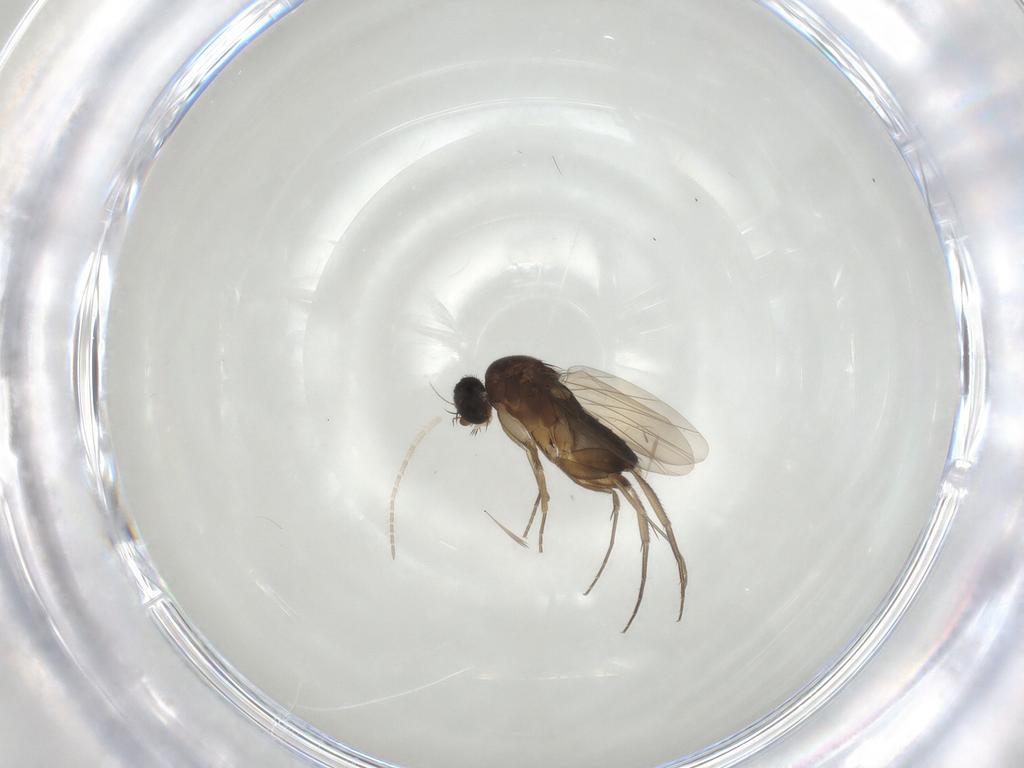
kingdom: Animalia
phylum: Arthropoda
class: Insecta
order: Diptera
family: Phoridae
